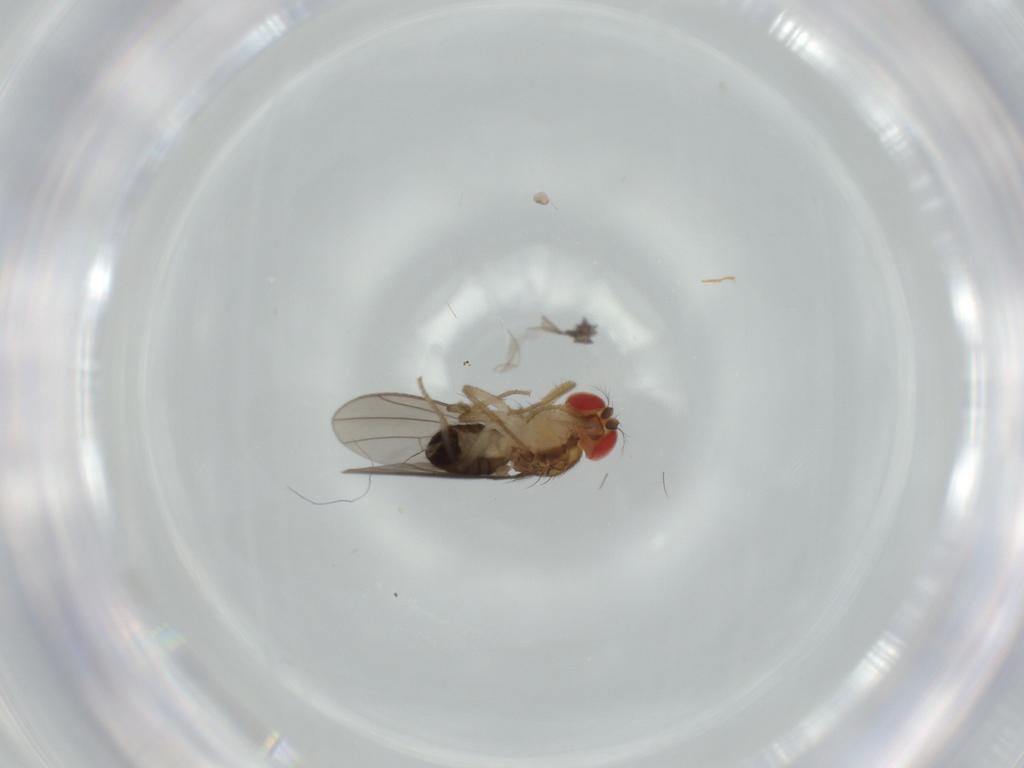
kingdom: Animalia
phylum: Arthropoda
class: Insecta
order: Diptera
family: Drosophilidae
